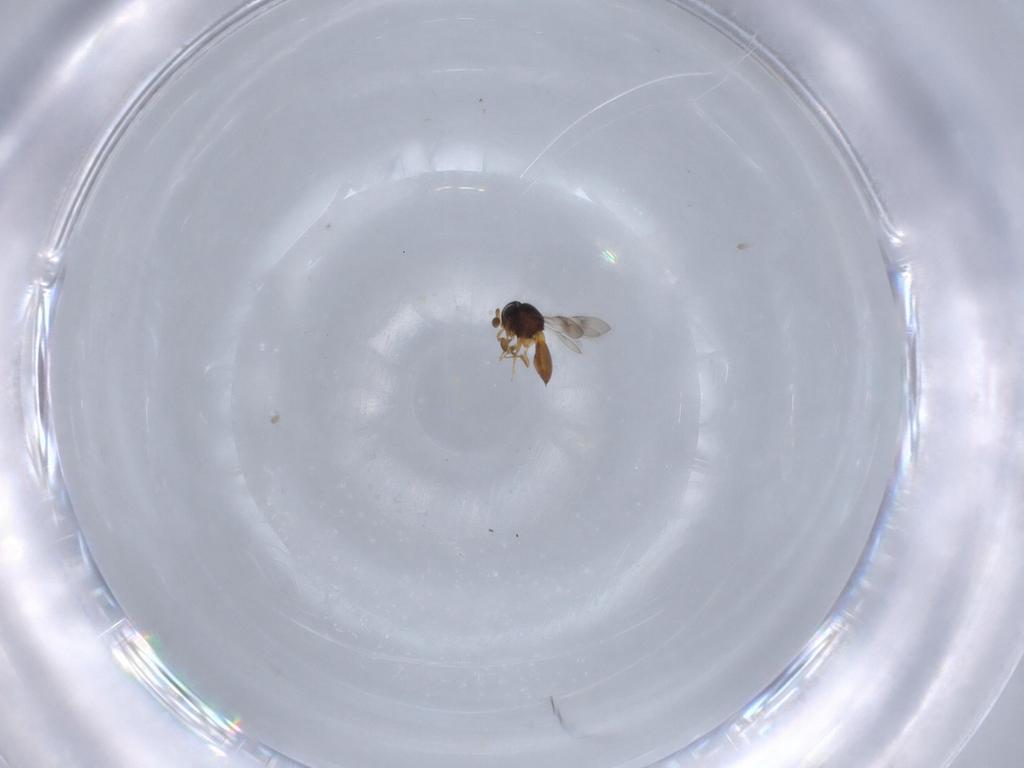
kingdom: Animalia
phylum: Arthropoda
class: Insecta
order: Hymenoptera
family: Scelionidae
